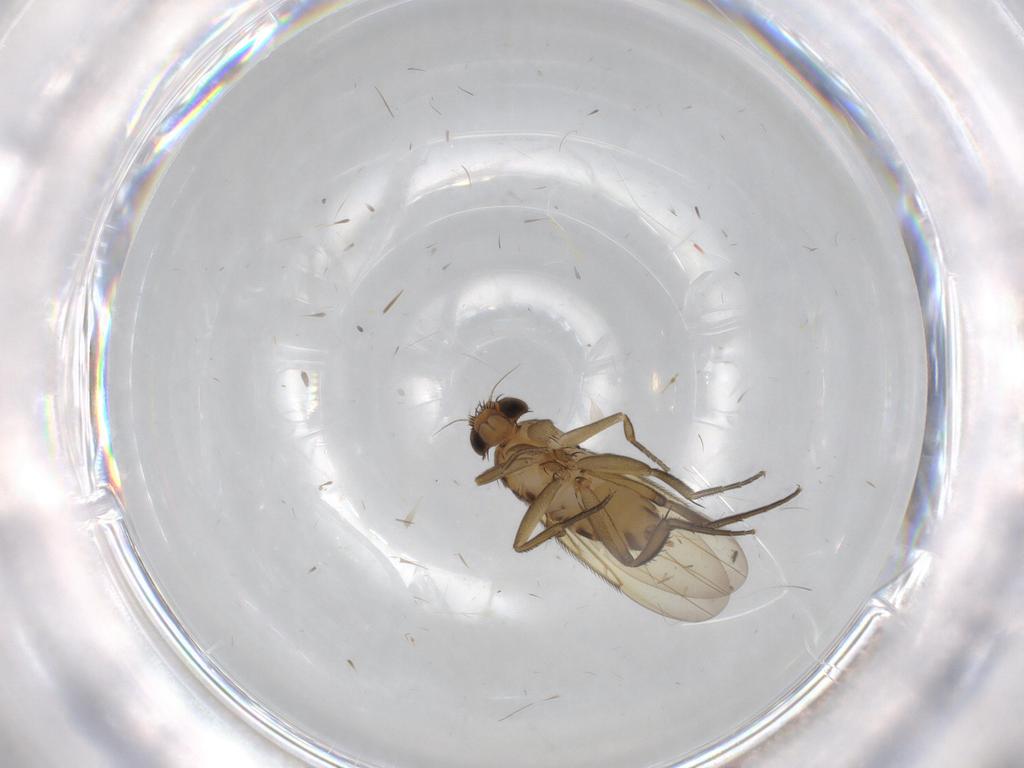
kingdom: Animalia
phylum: Arthropoda
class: Insecta
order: Diptera
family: Phoridae
